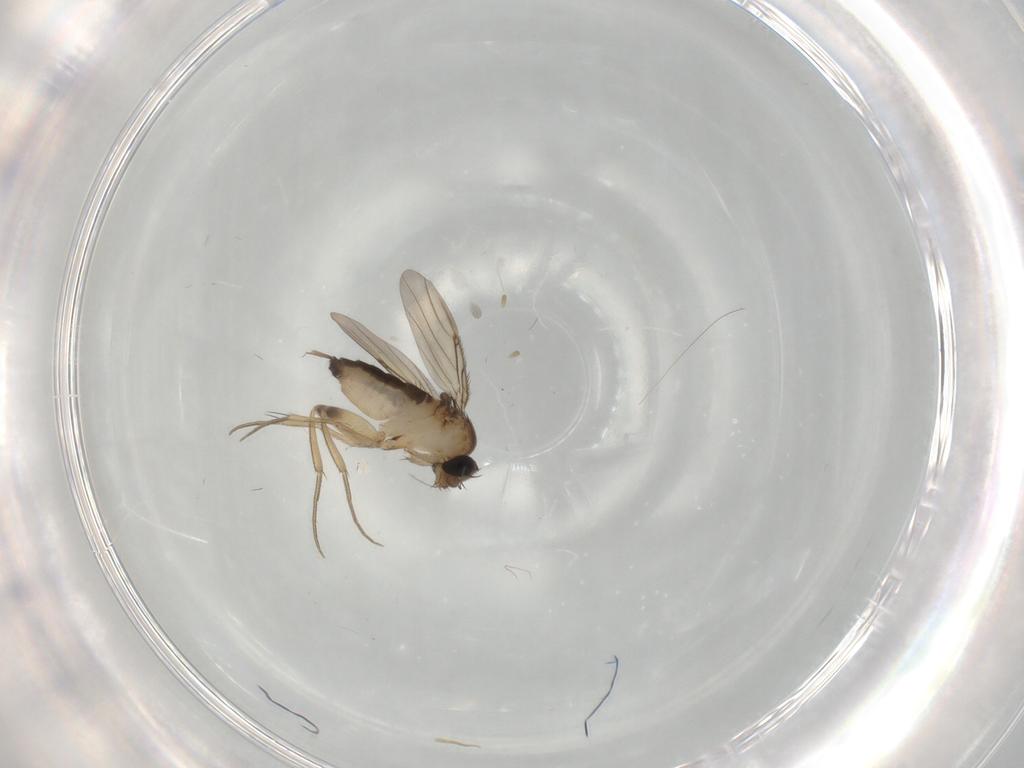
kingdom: Animalia
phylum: Arthropoda
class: Insecta
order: Diptera
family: Phoridae
